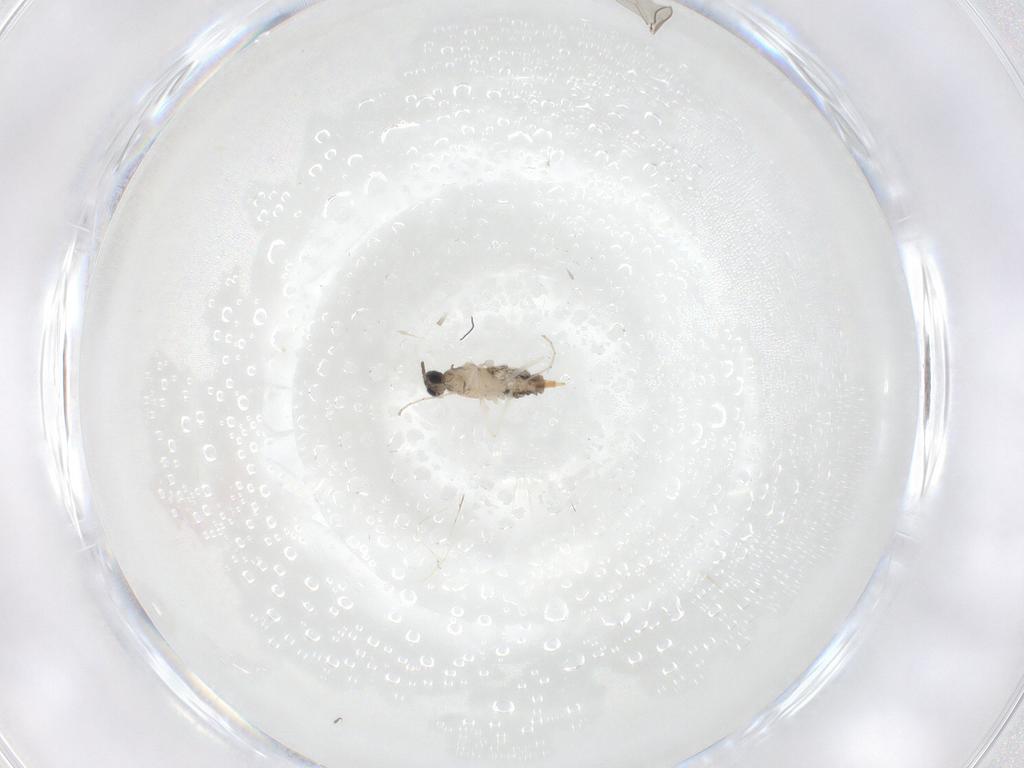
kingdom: Animalia
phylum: Arthropoda
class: Insecta
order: Diptera
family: Cecidomyiidae
